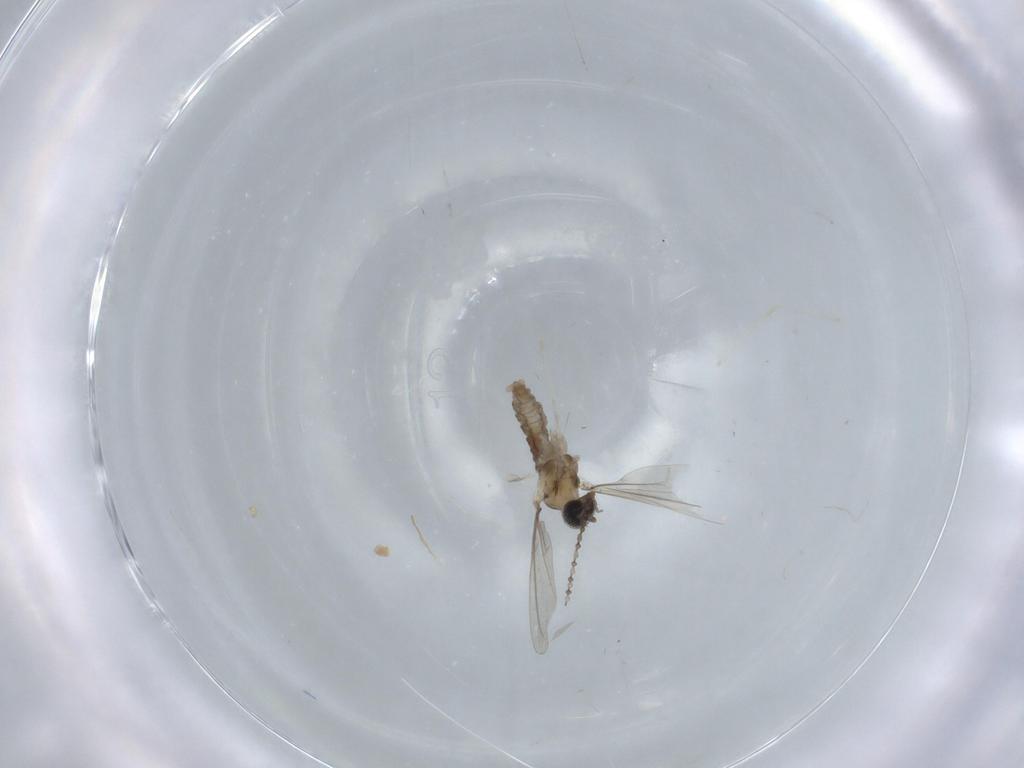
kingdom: Animalia
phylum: Arthropoda
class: Insecta
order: Diptera
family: Cecidomyiidae
